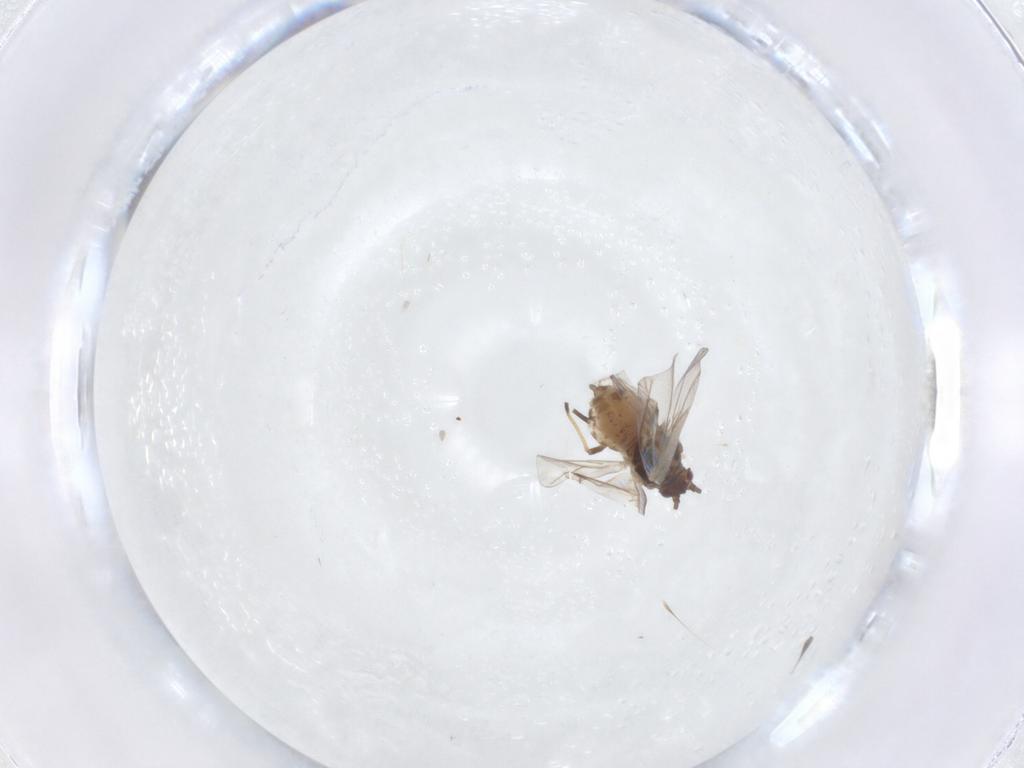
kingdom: Animalia
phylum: Arthropoda
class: Insecta
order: Hemiptera
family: Aphididae
